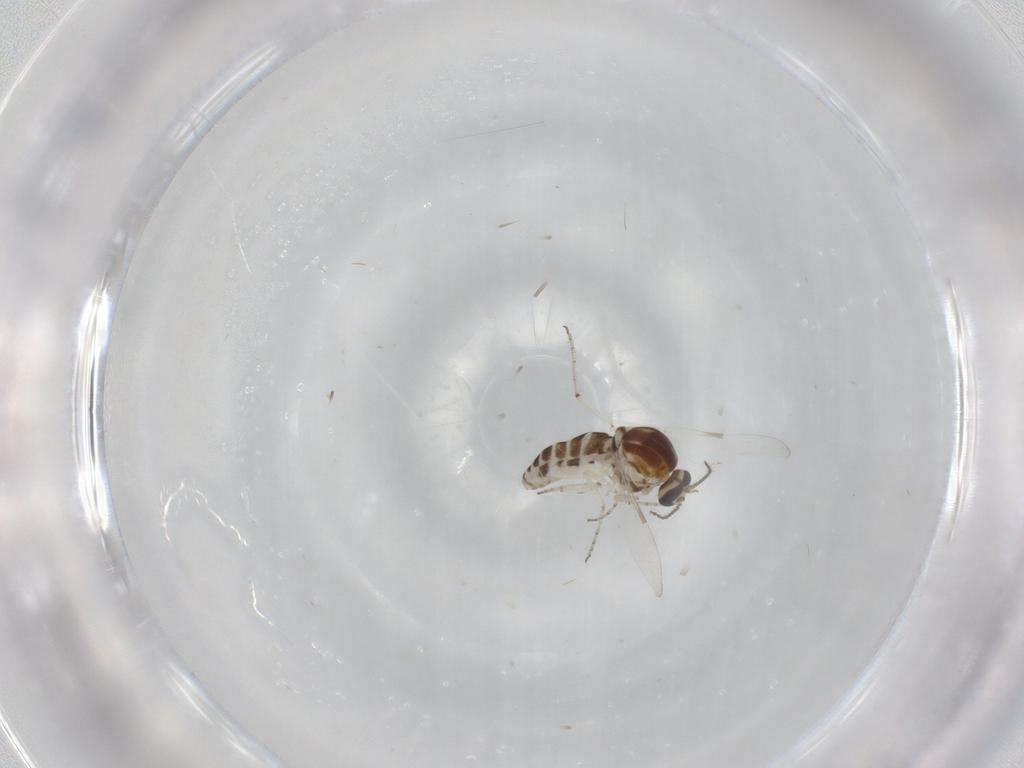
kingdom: Animalia
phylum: Arthropoda
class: Insecta
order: Diptera
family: Ceratopogonidae
